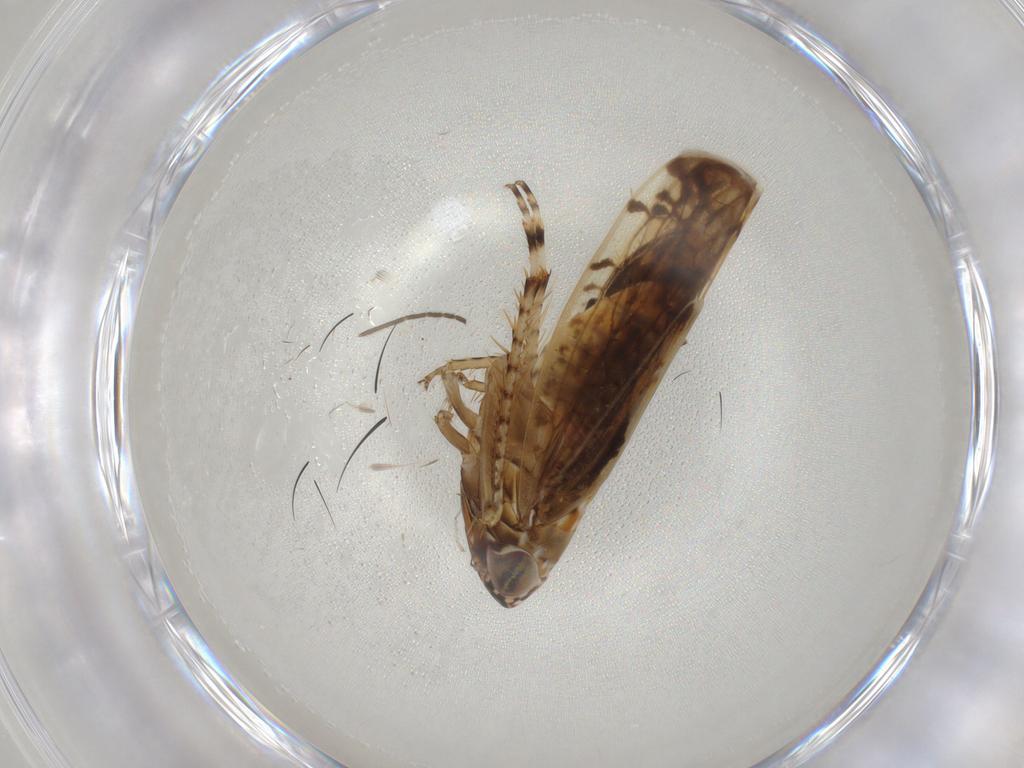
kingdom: Animalia
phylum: Arthropoda
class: Insecta
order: Hemiptera
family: Cicadellidae
